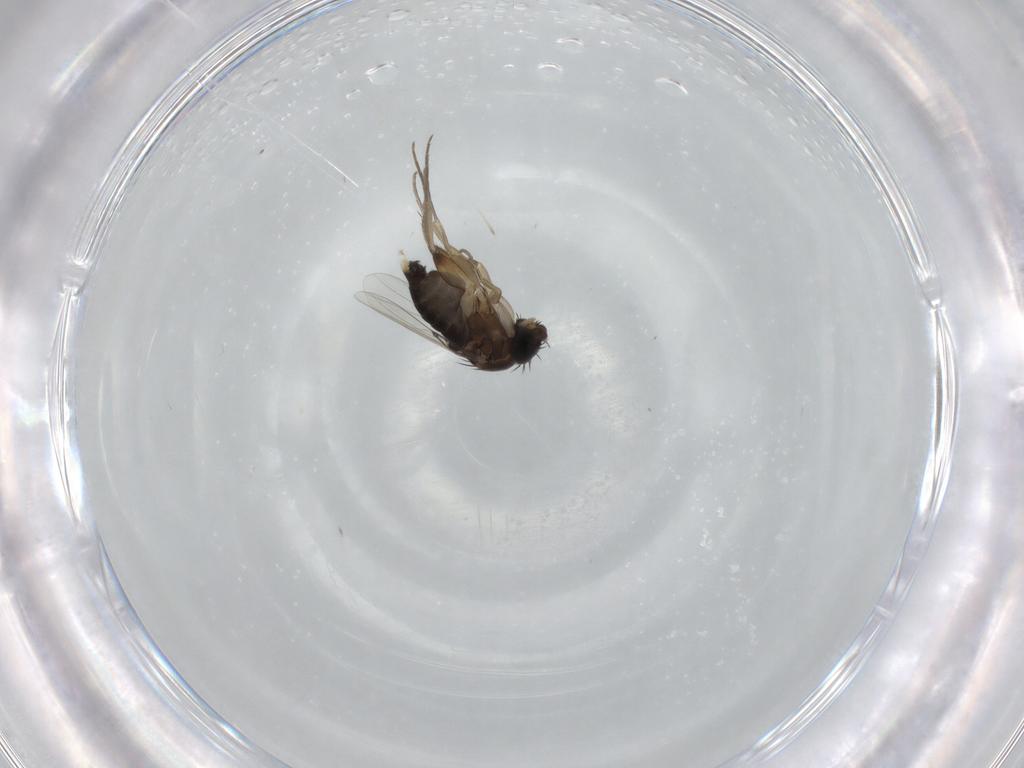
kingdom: Animalia
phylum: Arthropoda
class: Insecta
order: Diptera
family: Phoridae
